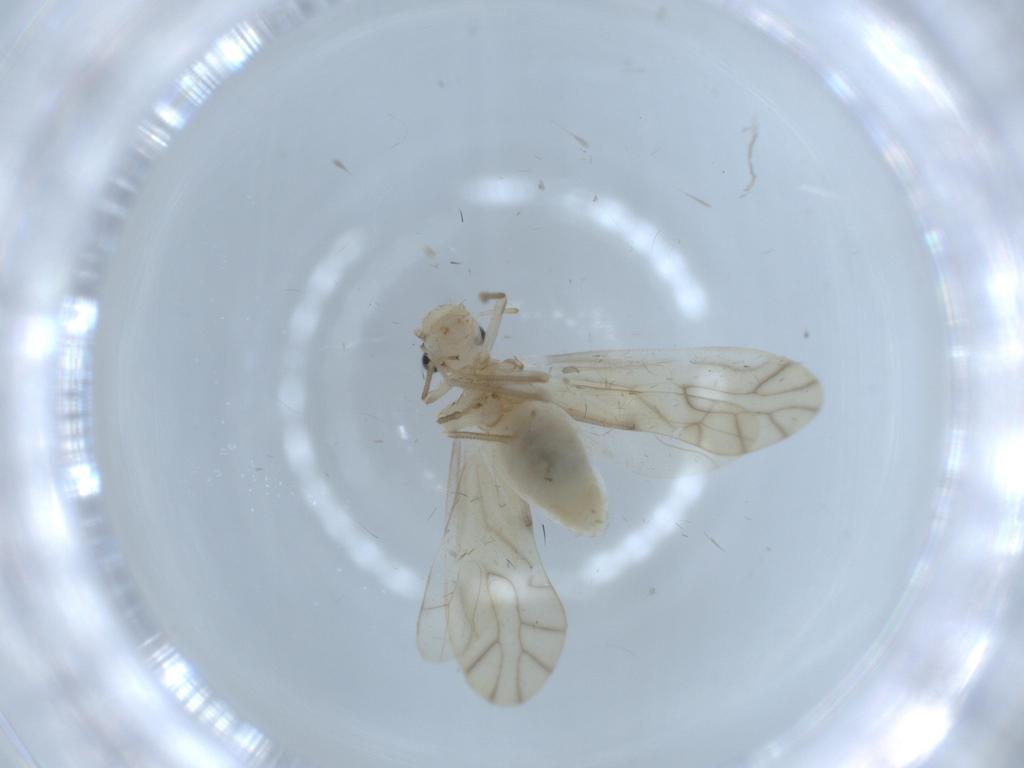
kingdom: Animalia
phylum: Arthropoda
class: Insecta
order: Psocodea
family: Caeciliusidae
